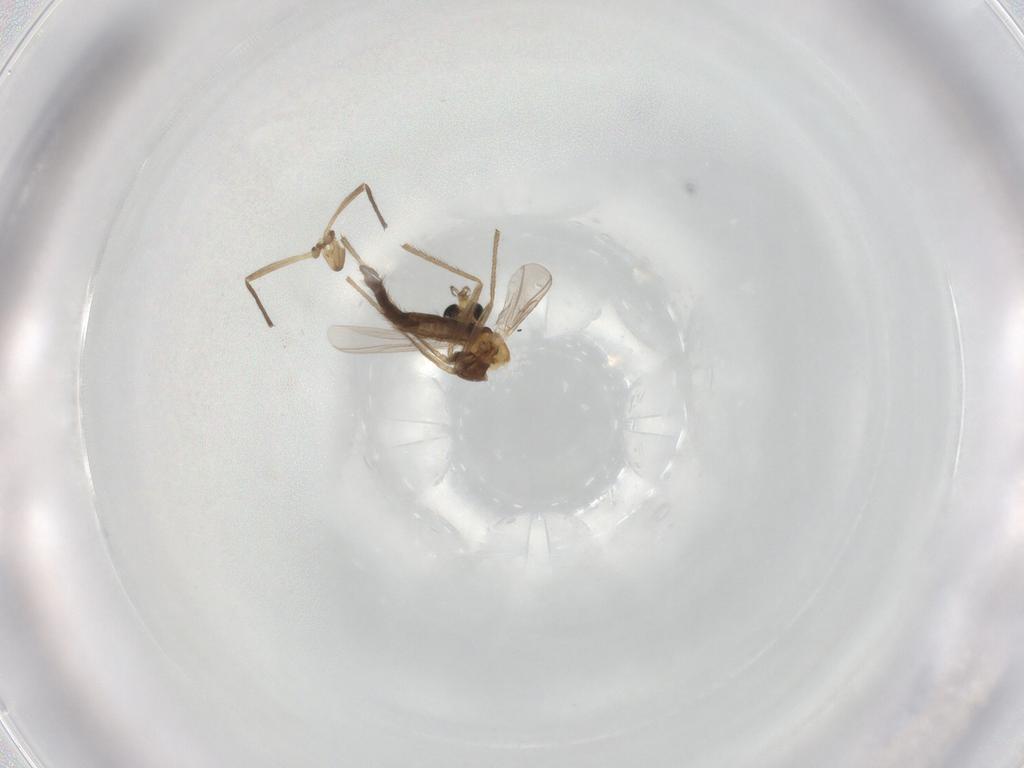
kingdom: Animalia
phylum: Arthropoda
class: Insecta
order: Diptera
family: Chironomidae
